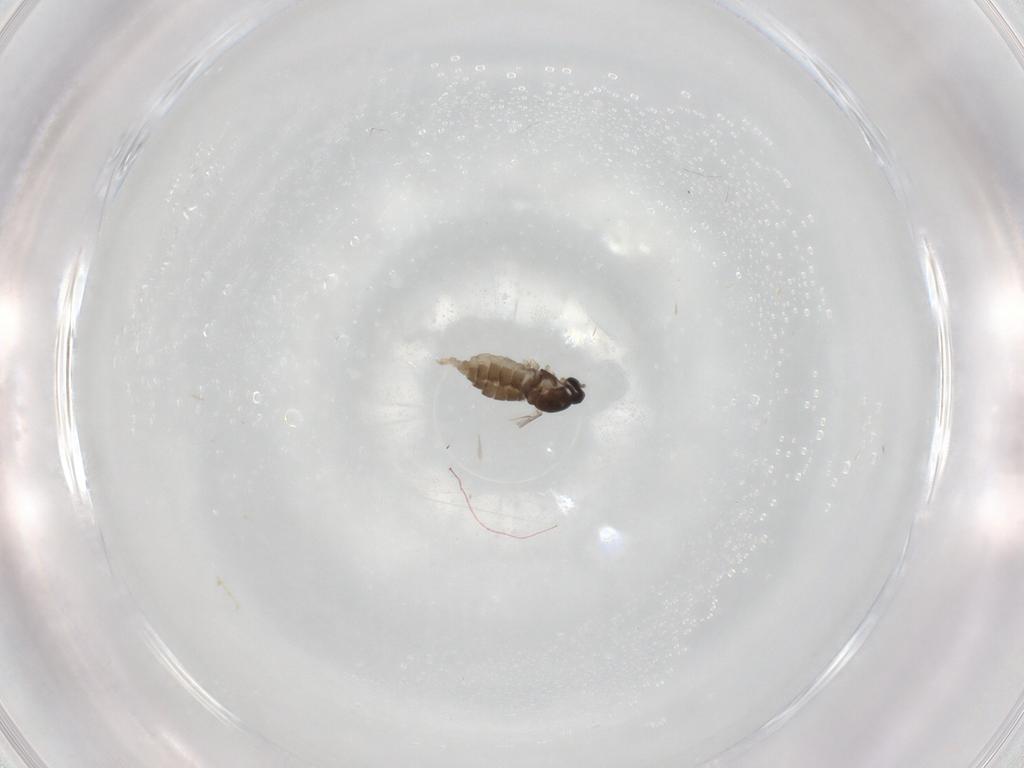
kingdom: Animalia
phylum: Arthropoda
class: Insecta
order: Diptera
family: Cecidomyiidae
